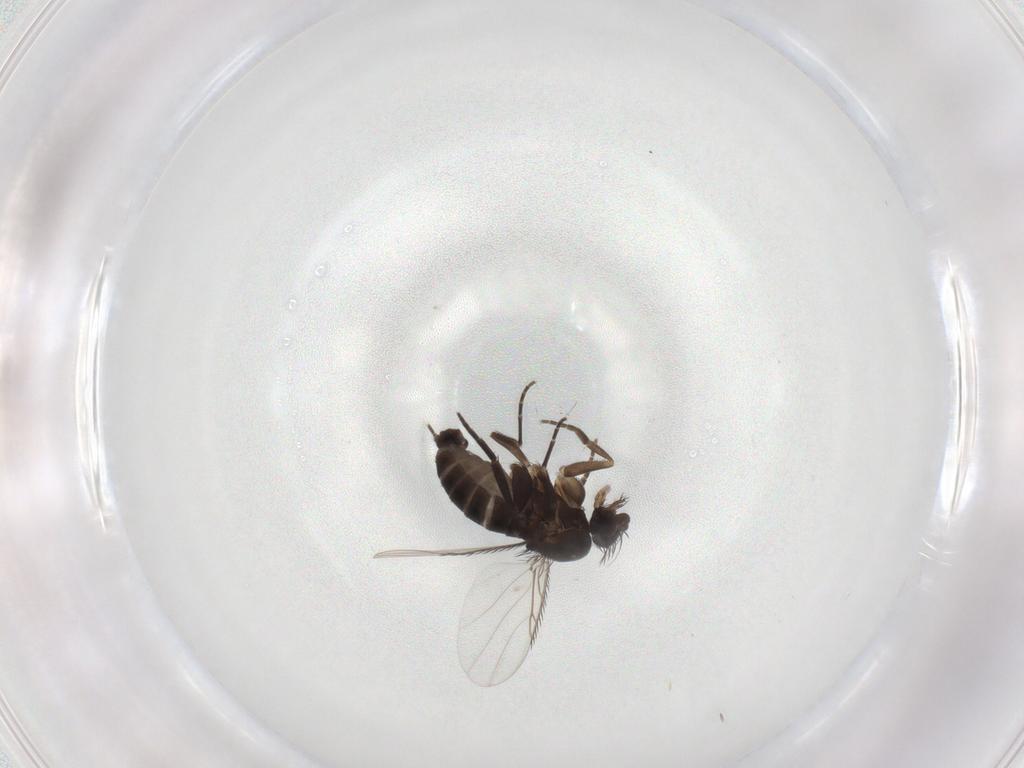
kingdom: Animalia
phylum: Arthropoda
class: Insecta
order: Diptera
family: Phoridae
